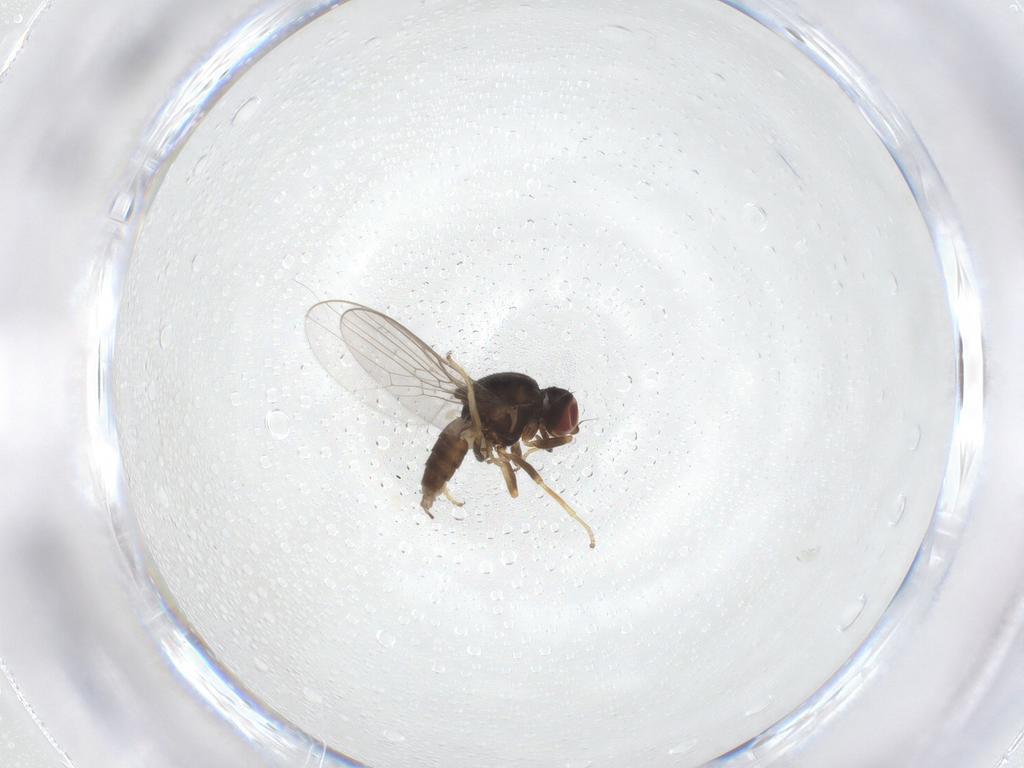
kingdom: Animalia
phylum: Arthropoda
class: Insecta
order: Diptera
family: Chloropidae
